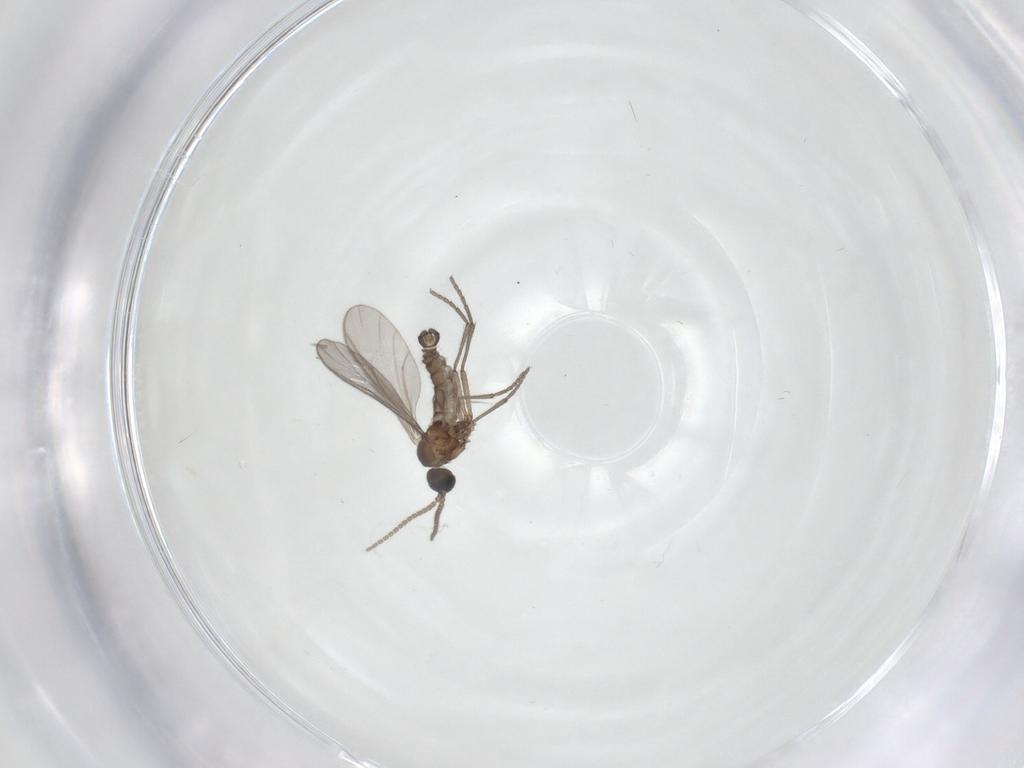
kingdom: Animalia
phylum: Arthropoda
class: Insecta
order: Diptera
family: Sciaridae
